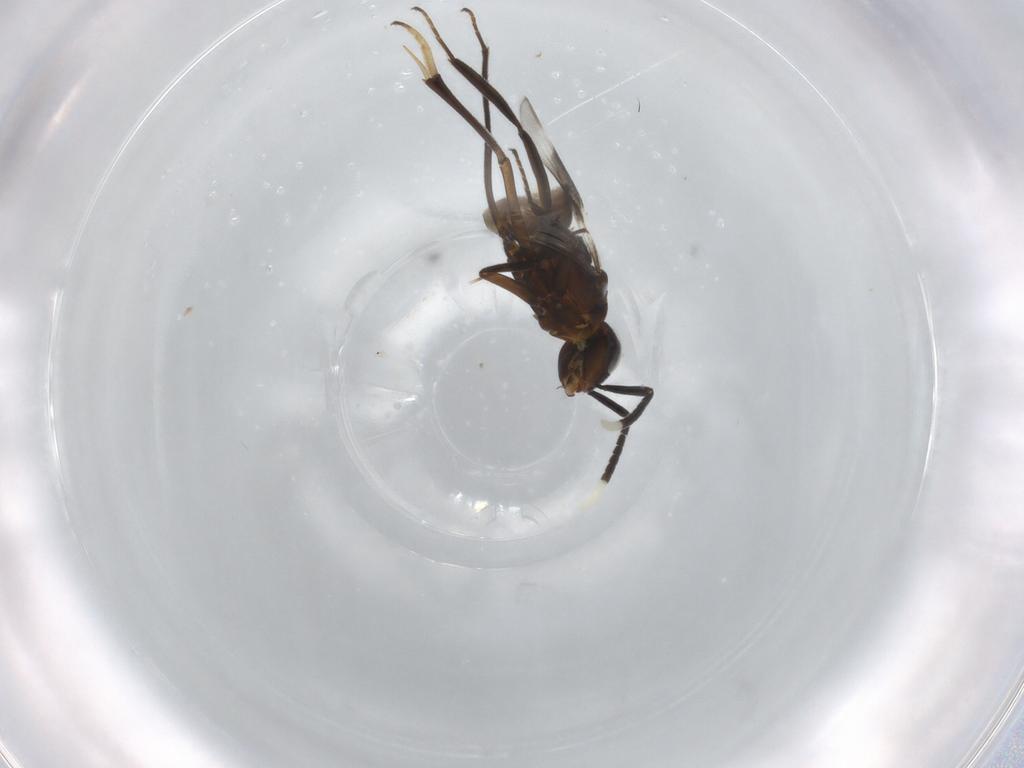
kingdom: Animalia
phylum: Arthropoda
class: Insecta
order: Hymenoptera
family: Encyrtidae
